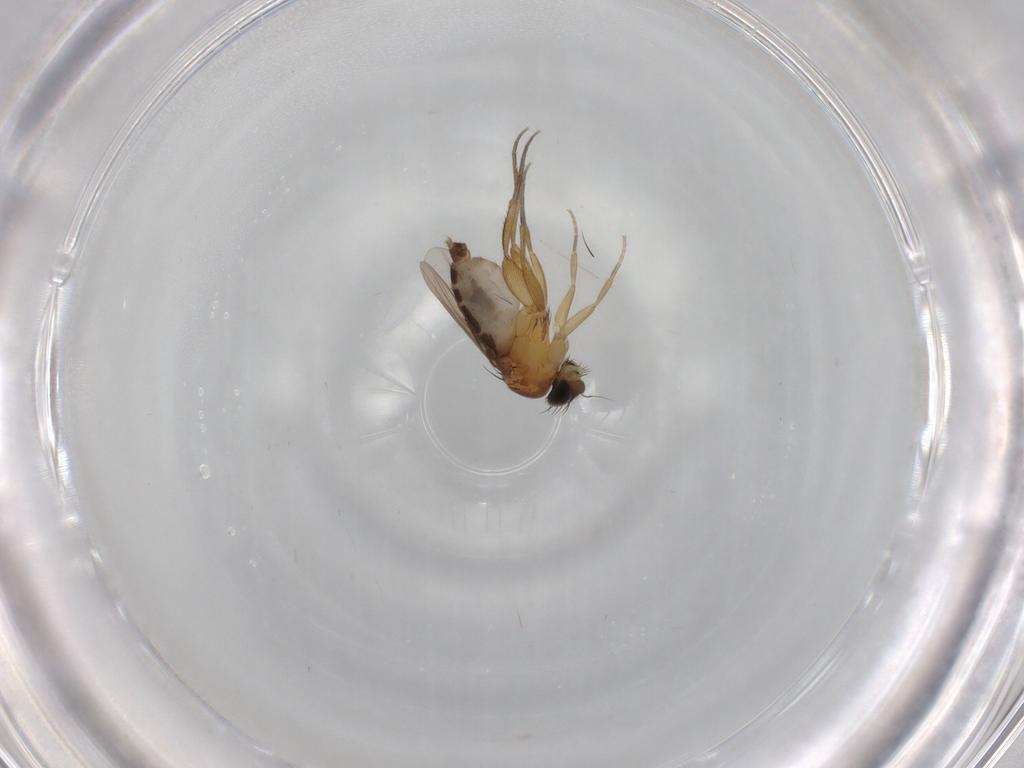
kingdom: Animalia
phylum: Arthropoda
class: Insecta
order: Diptera
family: Phoridae
